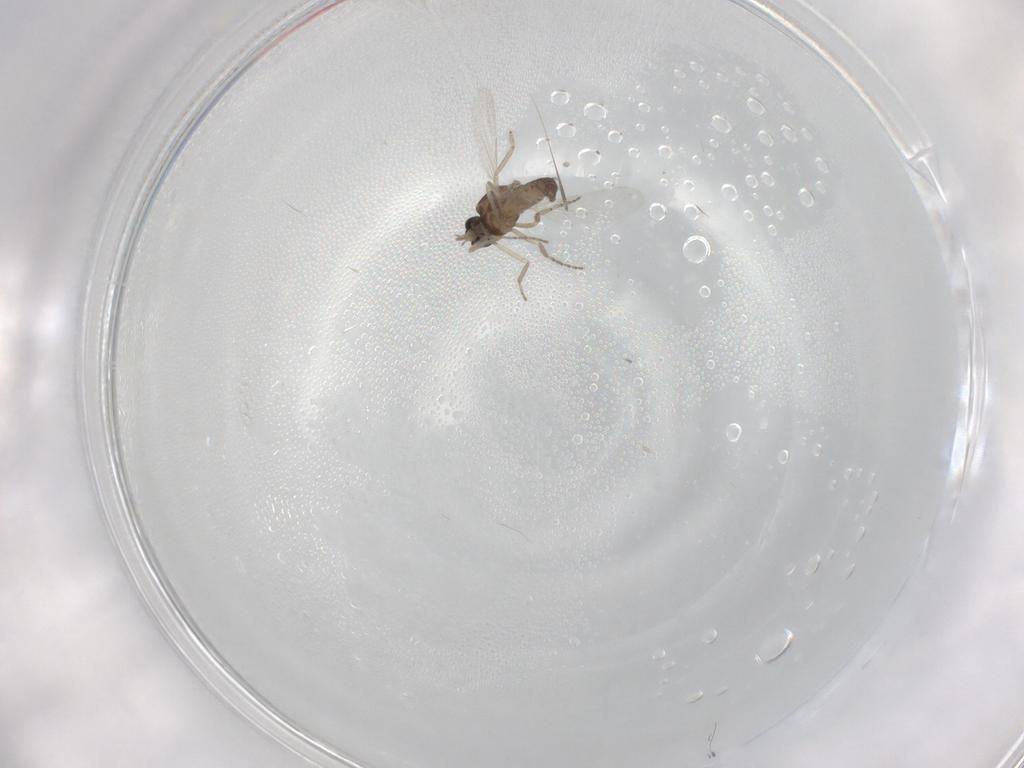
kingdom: Animalia
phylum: Arthropoda
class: Insecta
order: Diptera
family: Ceratopogonidae
